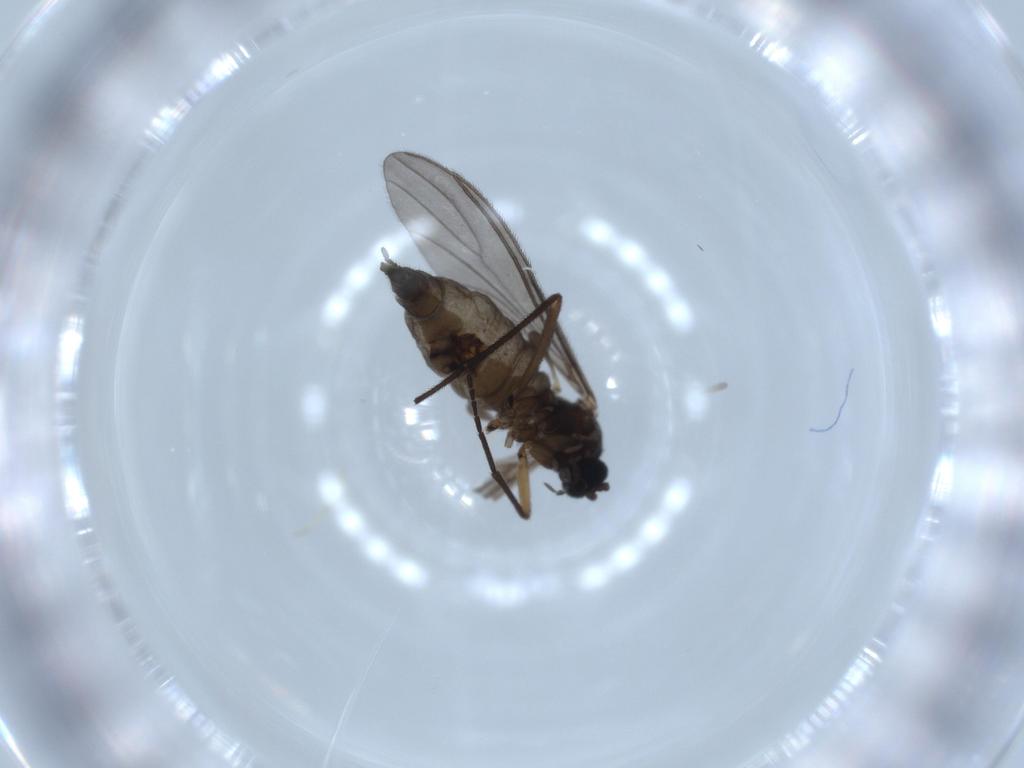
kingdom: Animalia
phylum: Arthropoda
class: Insecta
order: Diptera
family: Sciaridae
